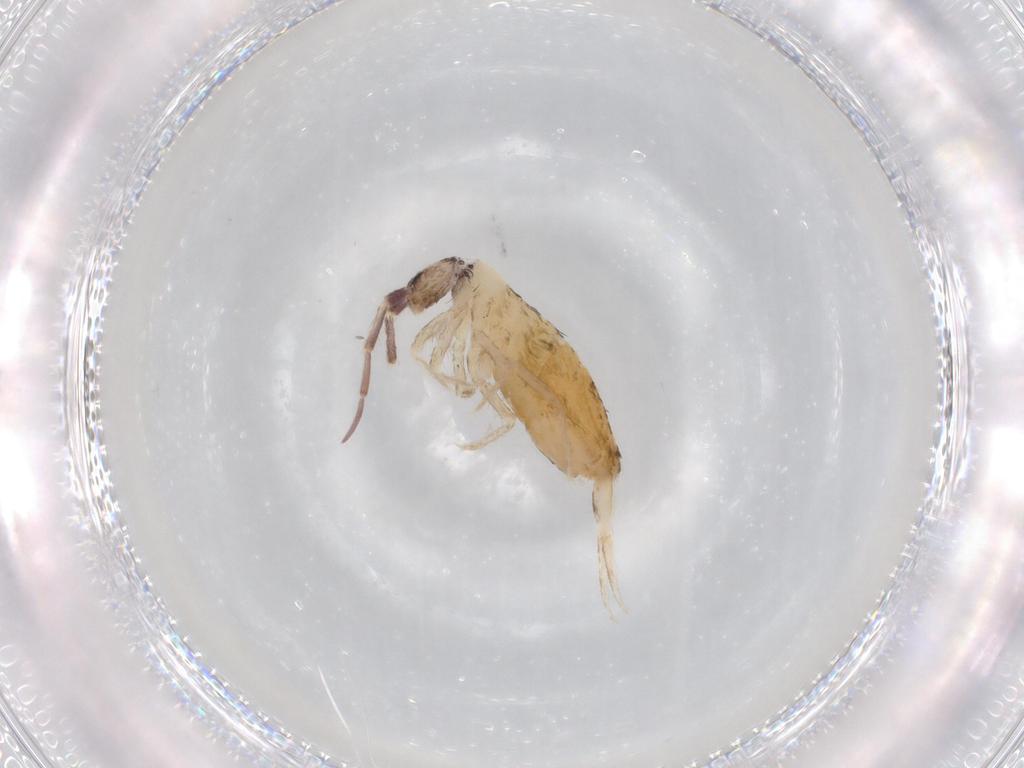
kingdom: Animalia
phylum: Arthropoda
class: Collembola
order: Entomobryomorpha
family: Entomobryidae
